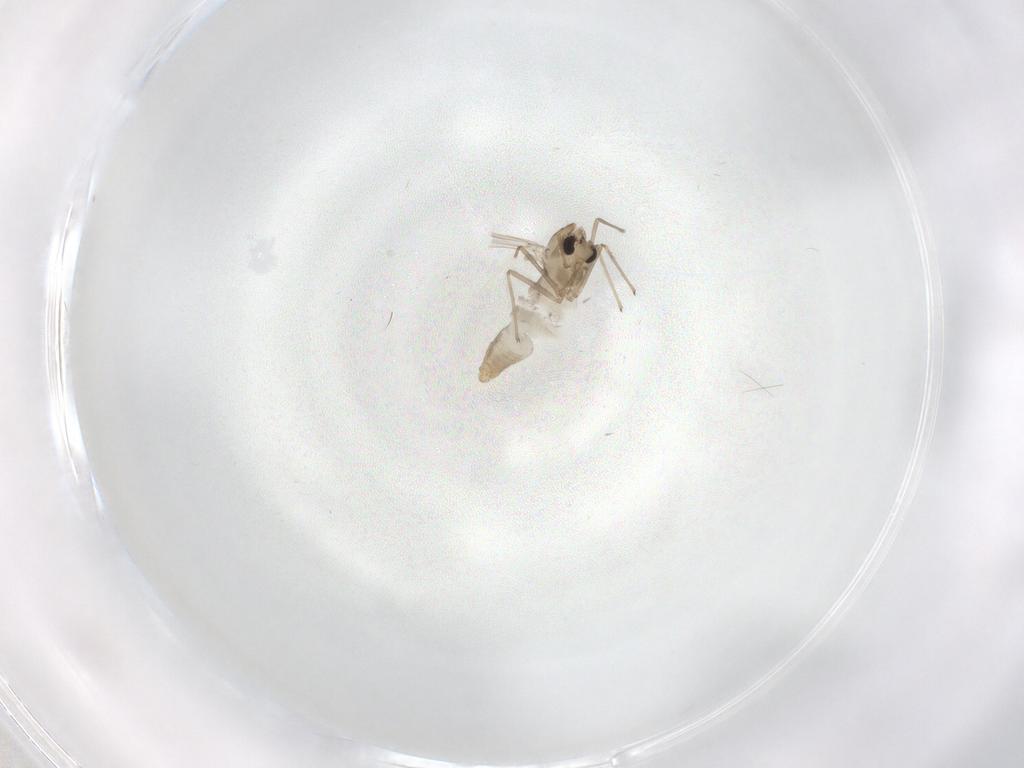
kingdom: Animalia
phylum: Arthropoda
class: Insecta
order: Diptera
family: Chironomidae
